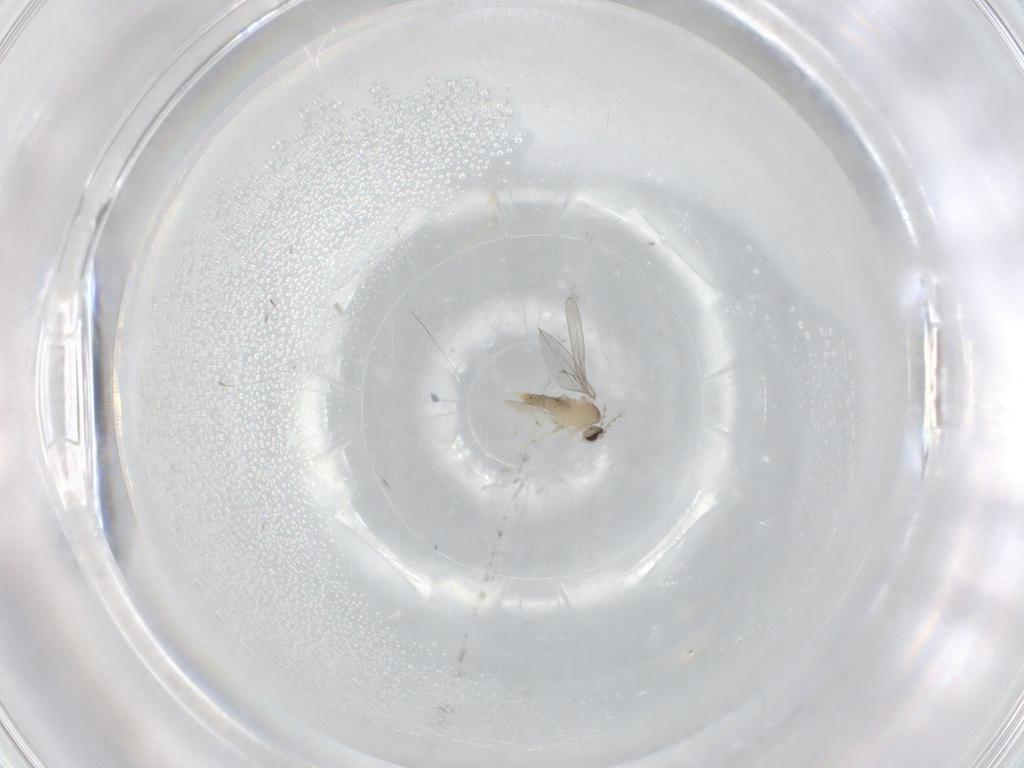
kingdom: Animalia
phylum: Arthropoda
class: Insecta
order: Diptera
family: Cecidomyiidae
